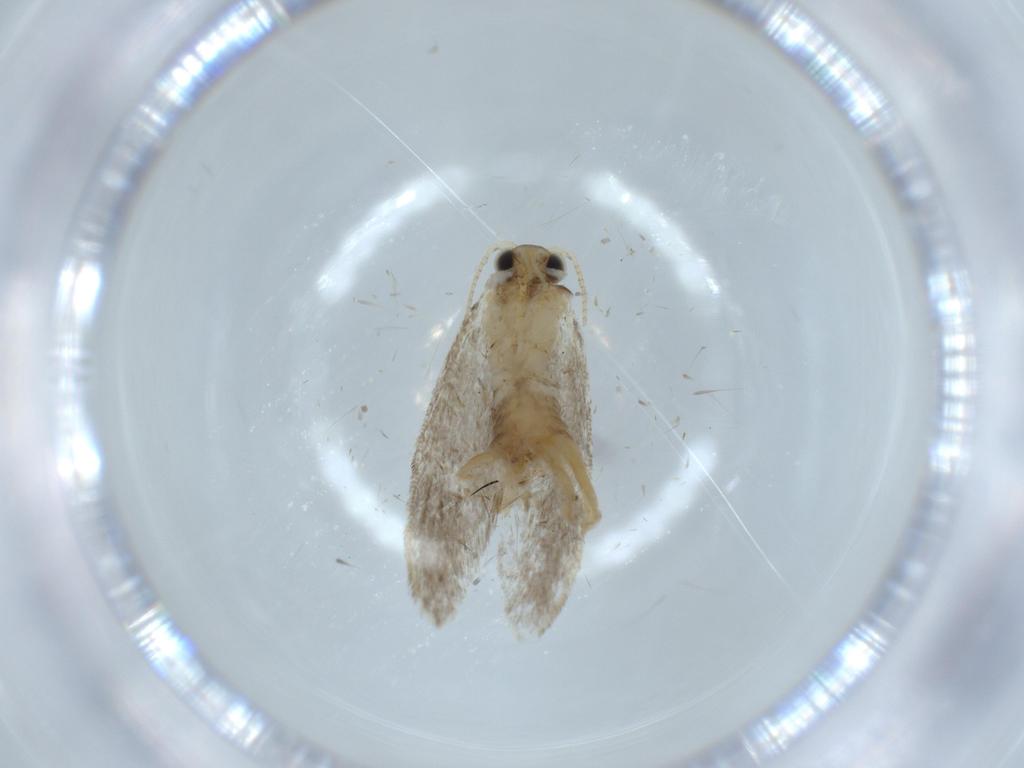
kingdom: Animalia
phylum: Arthropoda
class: Insecta
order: Lepidoptera
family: Tineidae
